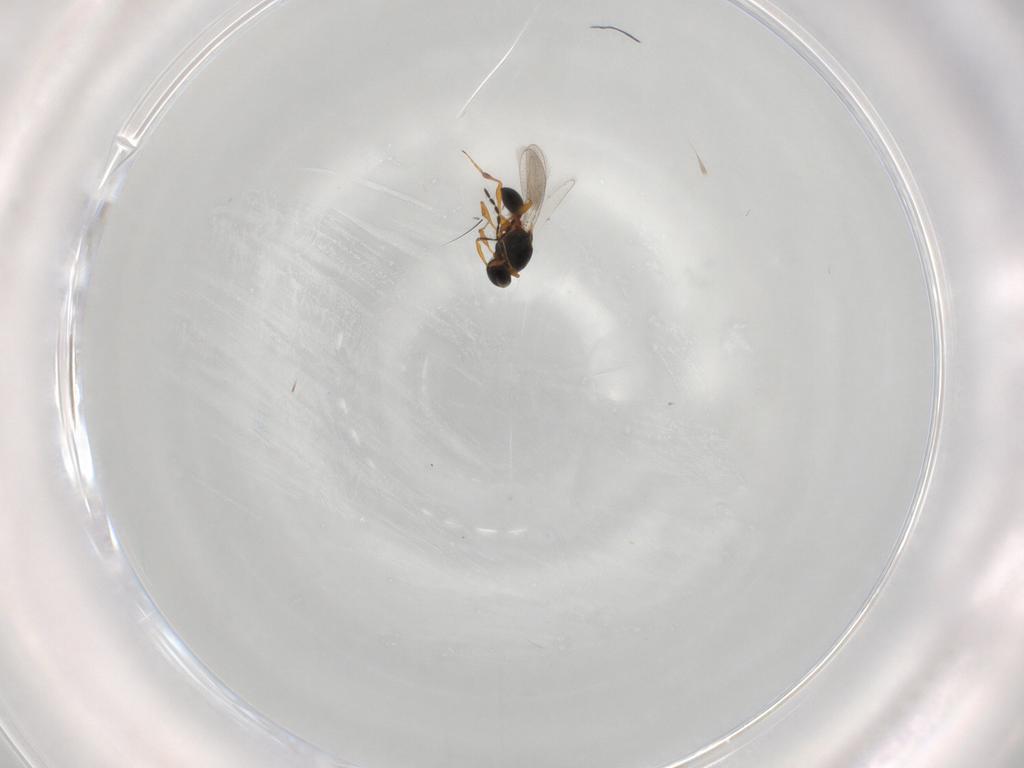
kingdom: Animalia
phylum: Arthropoda
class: Insecta
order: Hymenoptera
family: Platygastridae
